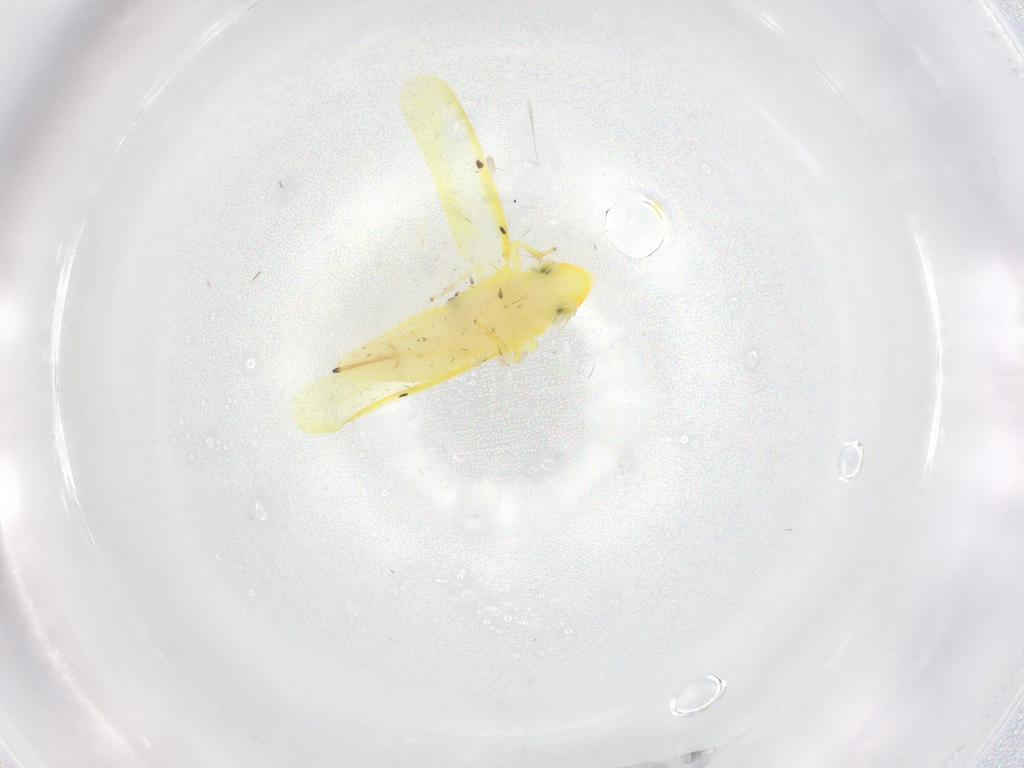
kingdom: Animalia
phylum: Arthropoda
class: Insecta
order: Hemiptera
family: Cicadellidae
